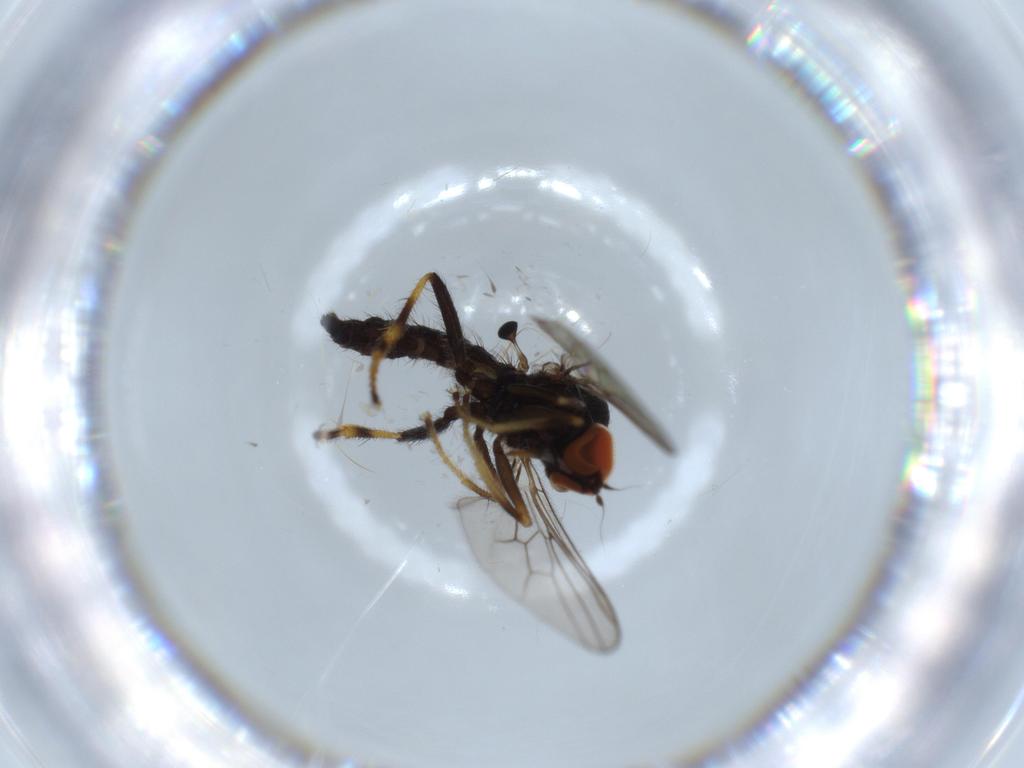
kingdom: Animalia
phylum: Arthropoda
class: Insecta
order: Diptera
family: Hybotidae
